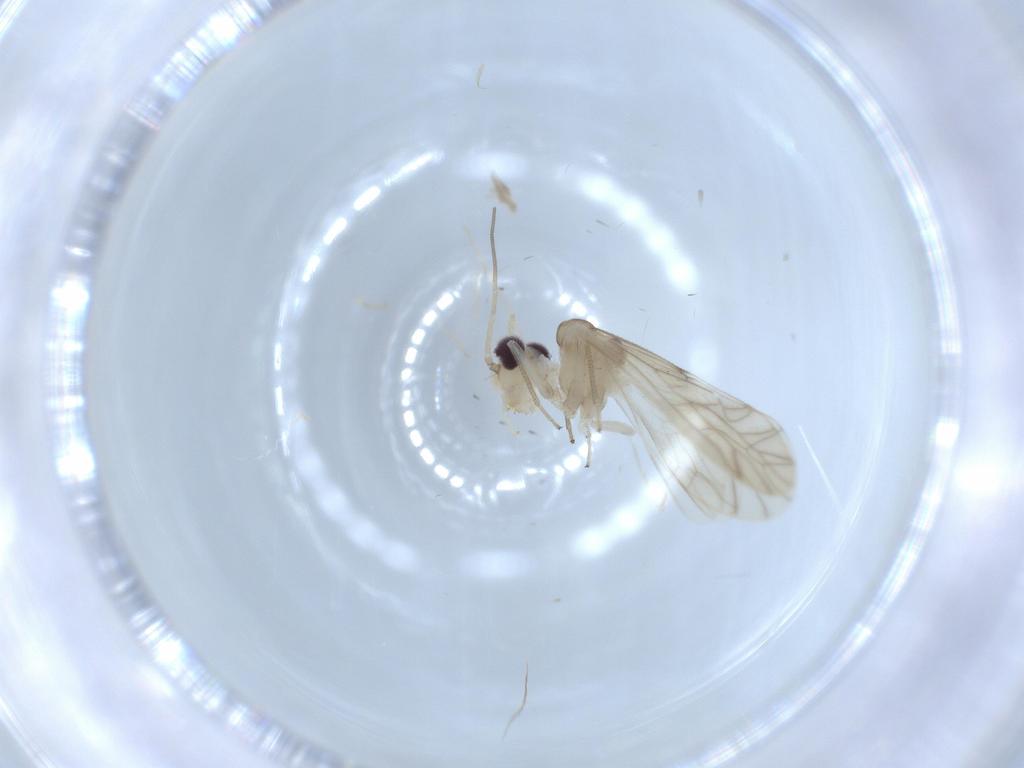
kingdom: Animalia
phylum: Arthropoda
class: Insecta
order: Psocodea
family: Caeciliusidae
